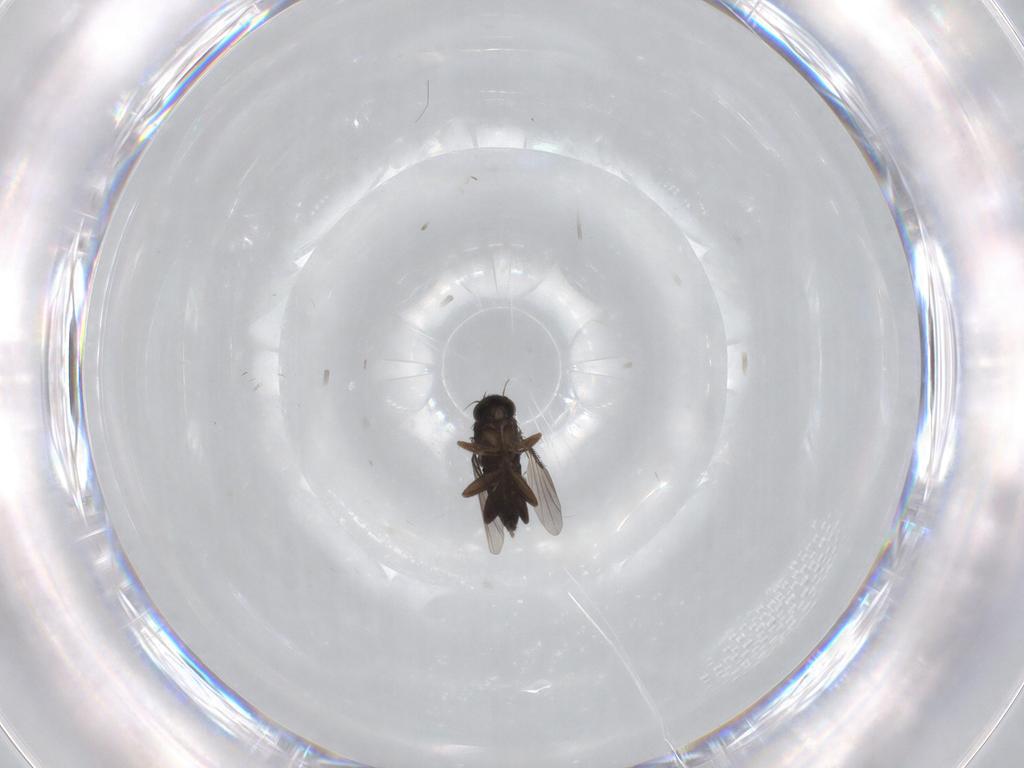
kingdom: Animalia
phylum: Arthropoda
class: Insecta
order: Diptera
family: Phoridae
